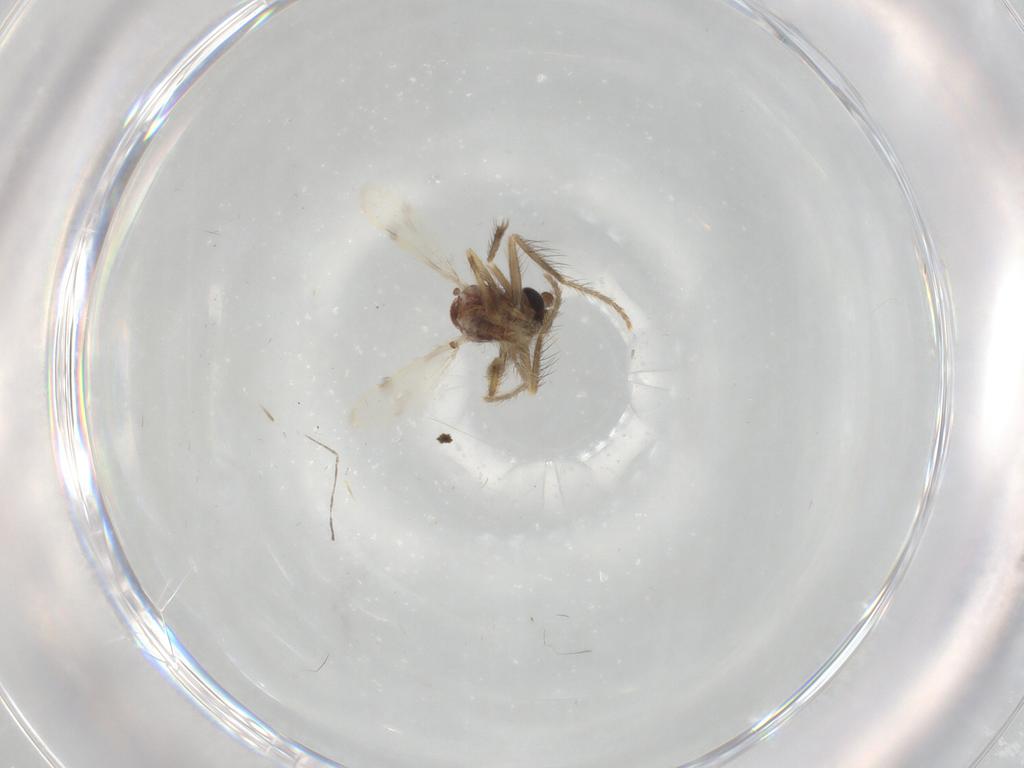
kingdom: Animalia
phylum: Arthropoda
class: Insecta
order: Diptera
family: Corethrellidae
